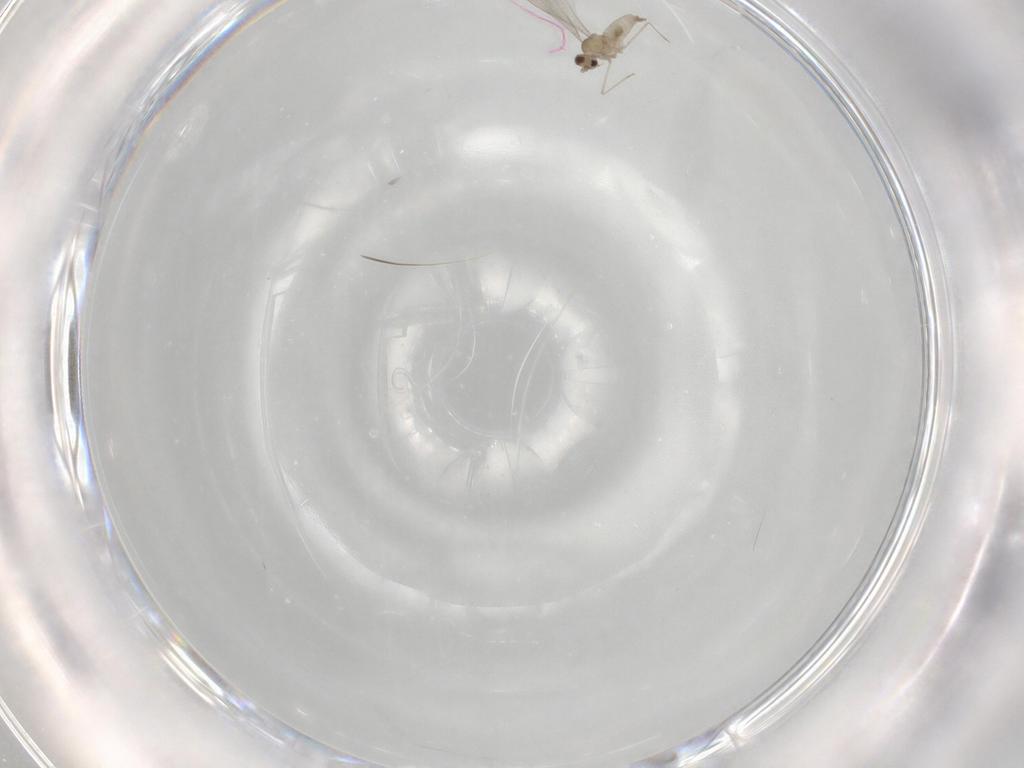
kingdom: Animalia
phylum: Arthropoda
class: Insecta
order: Diptera
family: Cecidomyiidae
